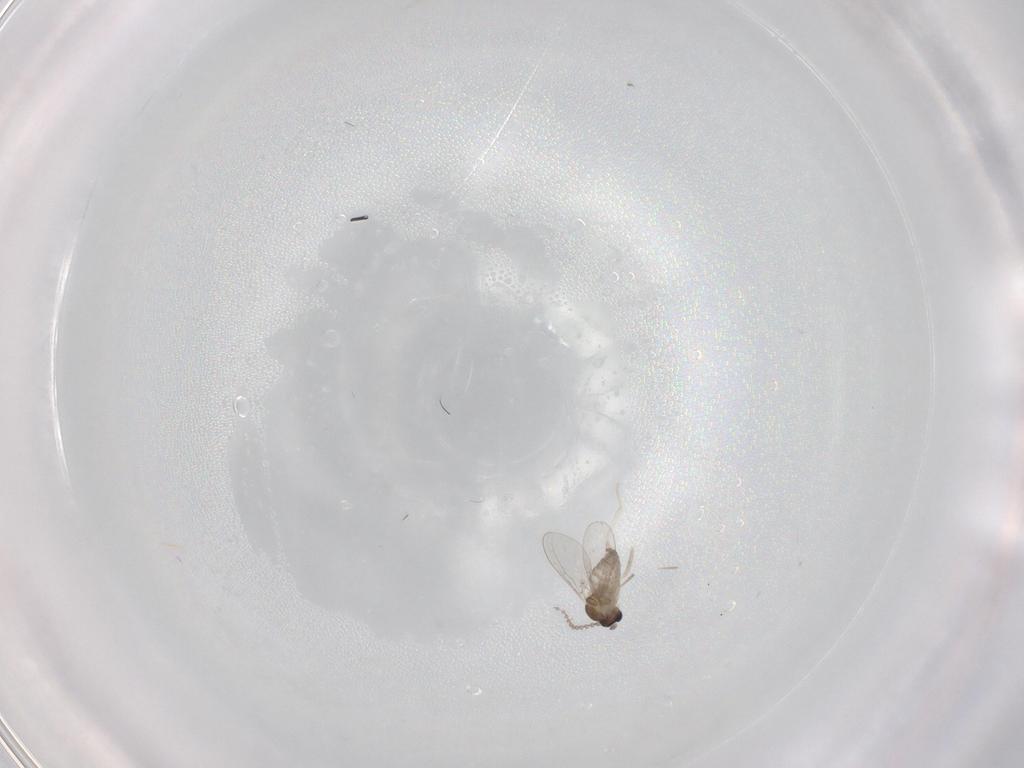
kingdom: Animalia
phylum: Arthropoda
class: Insecta
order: Diptera
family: Cecidomyiidae
